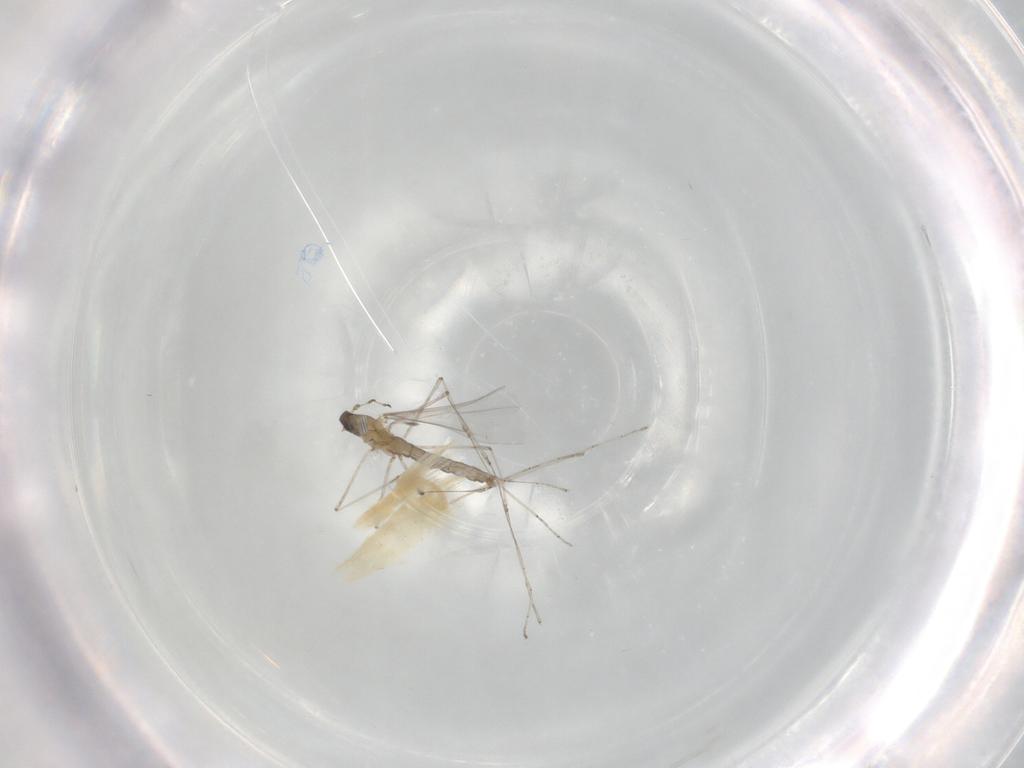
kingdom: Animalia
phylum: Arthropoda
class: Insecta
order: Diptera
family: Cecidomyiidae
